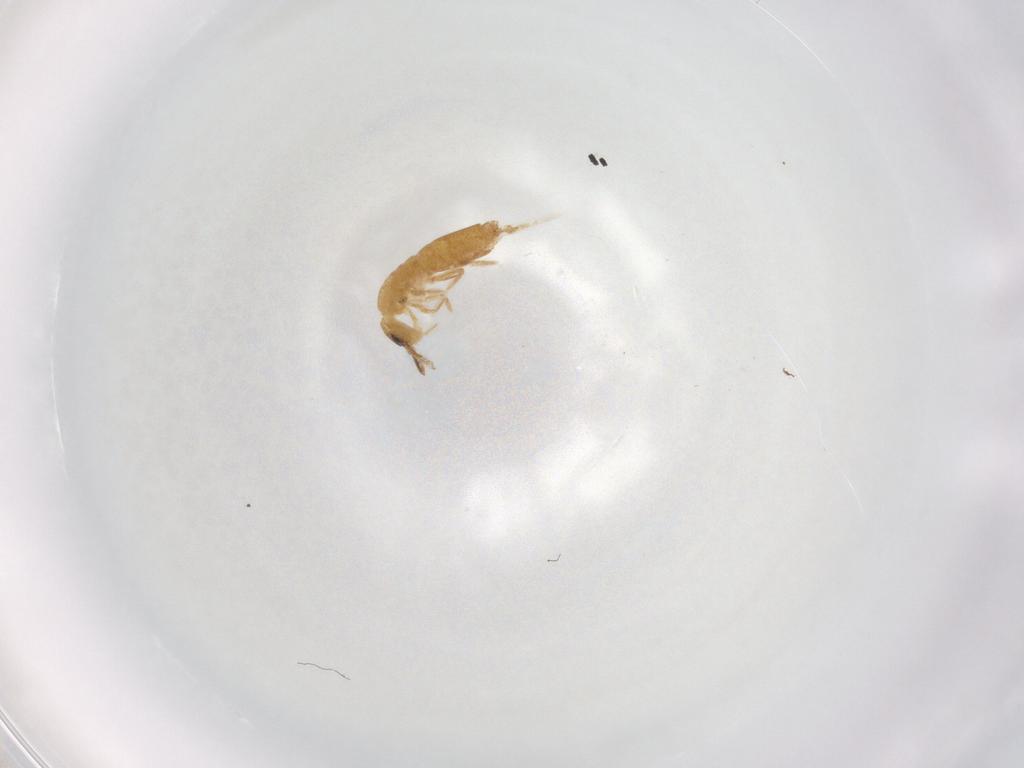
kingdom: Animalia
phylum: Arthropoda
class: Collembola
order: Entomobryomorpha
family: Entomobryidae
